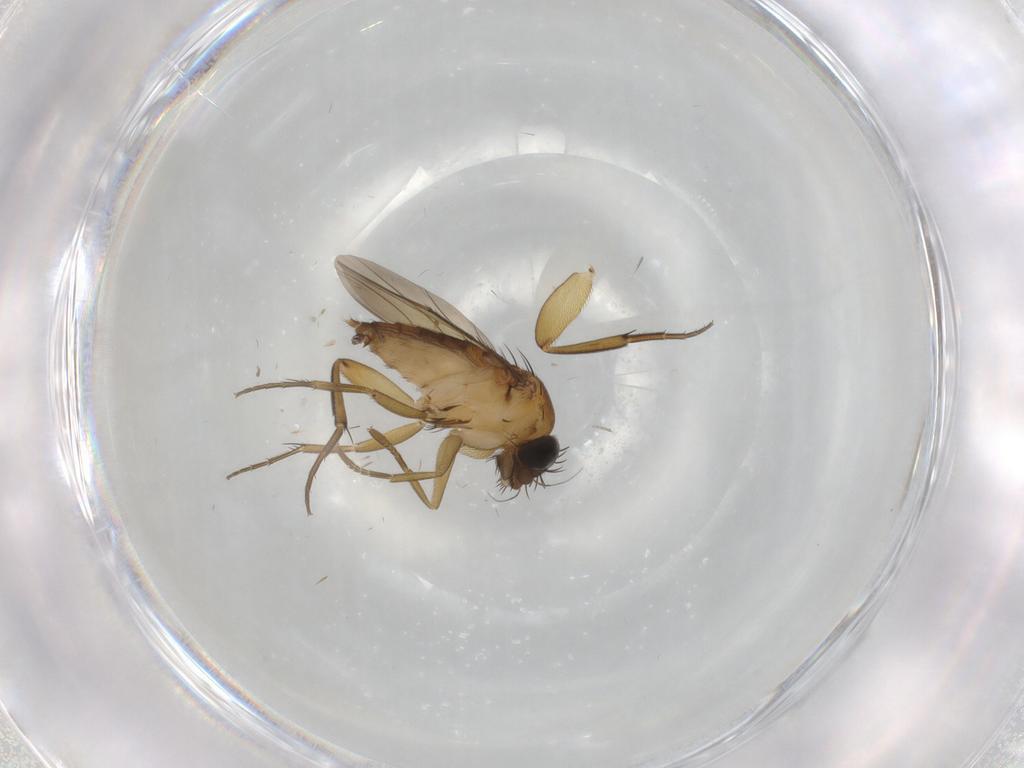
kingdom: Animalia
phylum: Arthropoda
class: Insecta
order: Diptera
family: Phoridae
